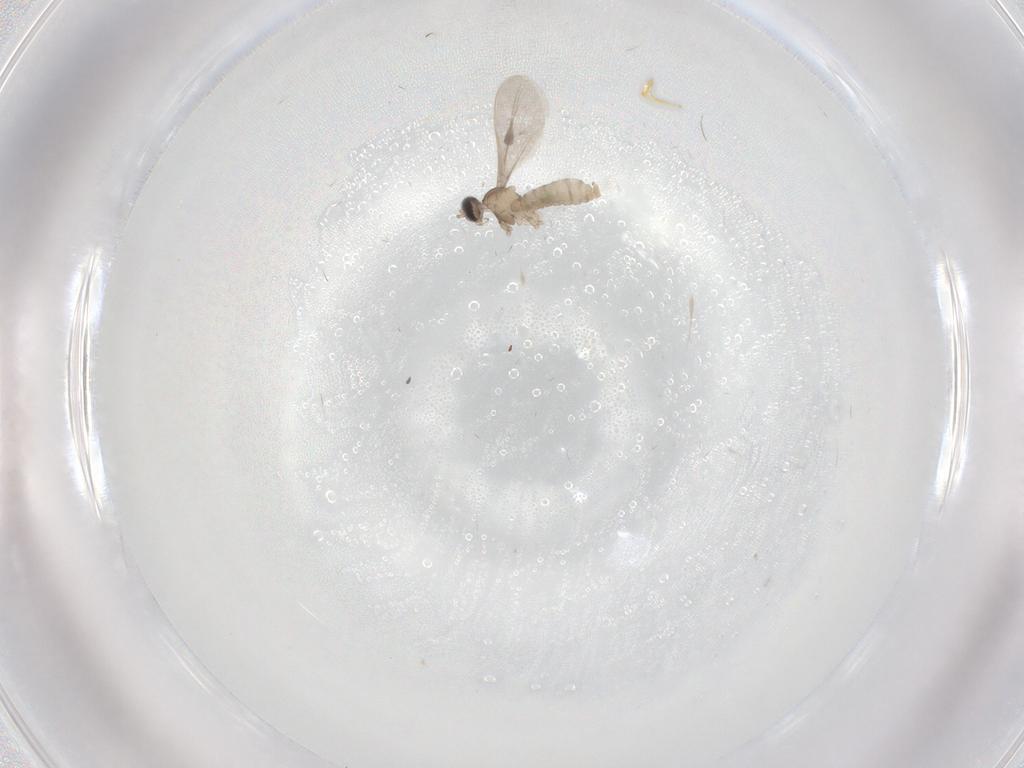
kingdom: Animalia
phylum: Arthropoda
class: Insecta
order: Diptera
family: Cecidomyiidae
